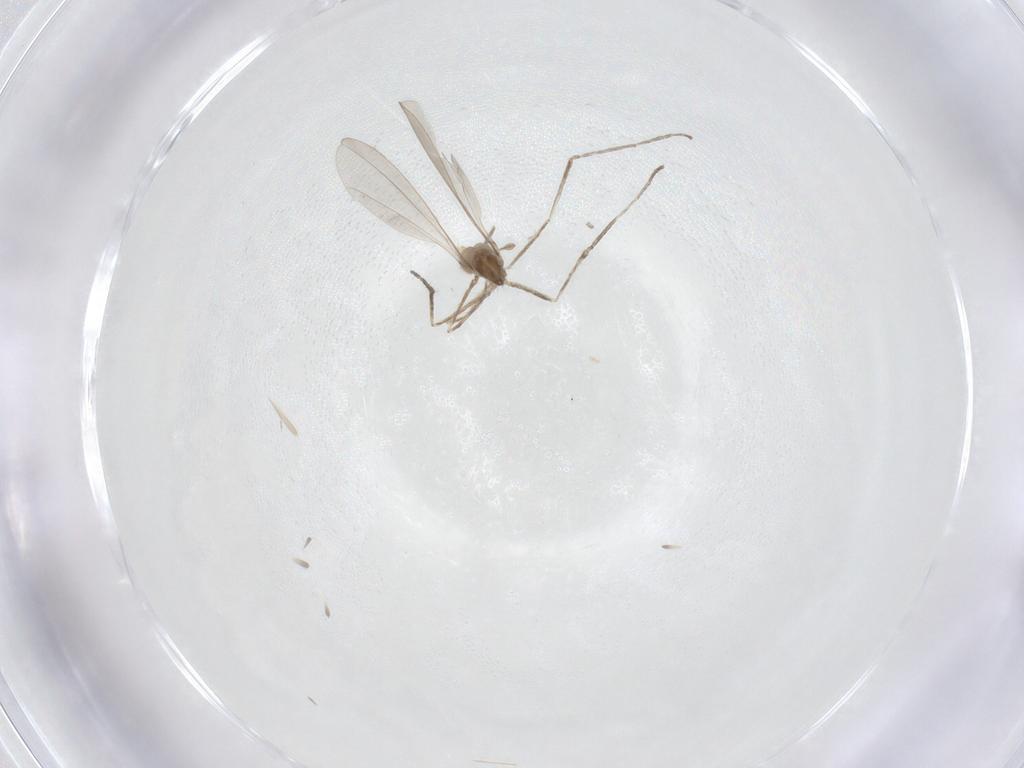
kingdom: Animalia
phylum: Arthropoda
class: Insecta
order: Diptera
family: Cecidomyiidae
